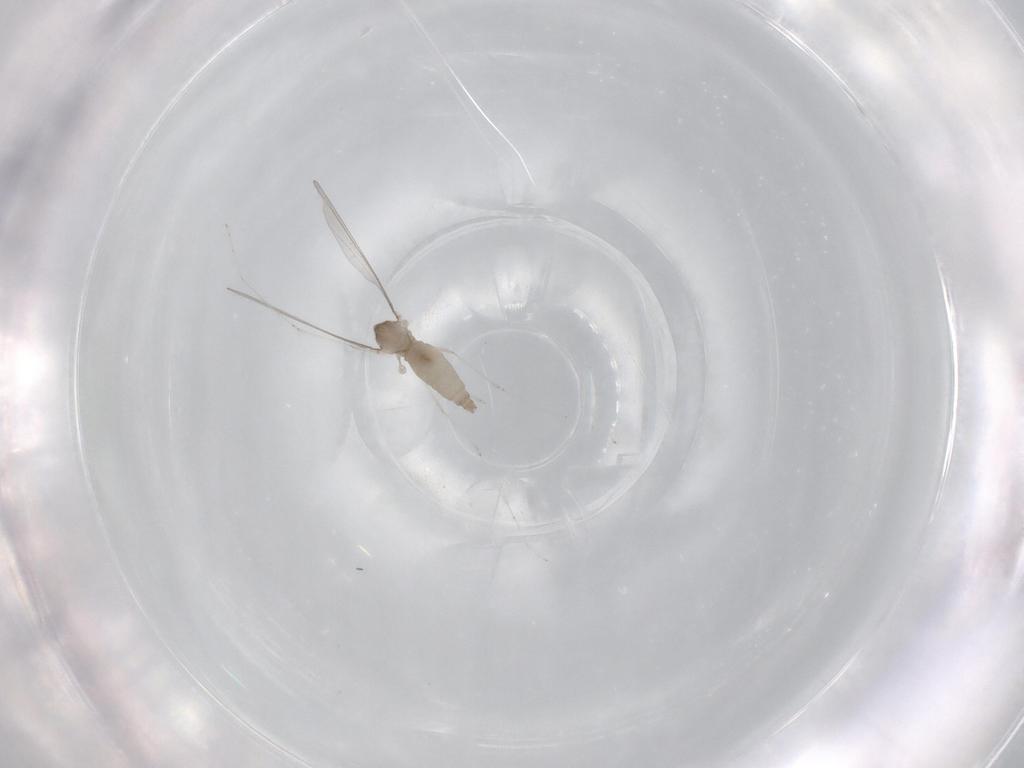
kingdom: Animalia
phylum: Arthropoda
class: Insecta
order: Diptera
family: Cecidomyiidae
